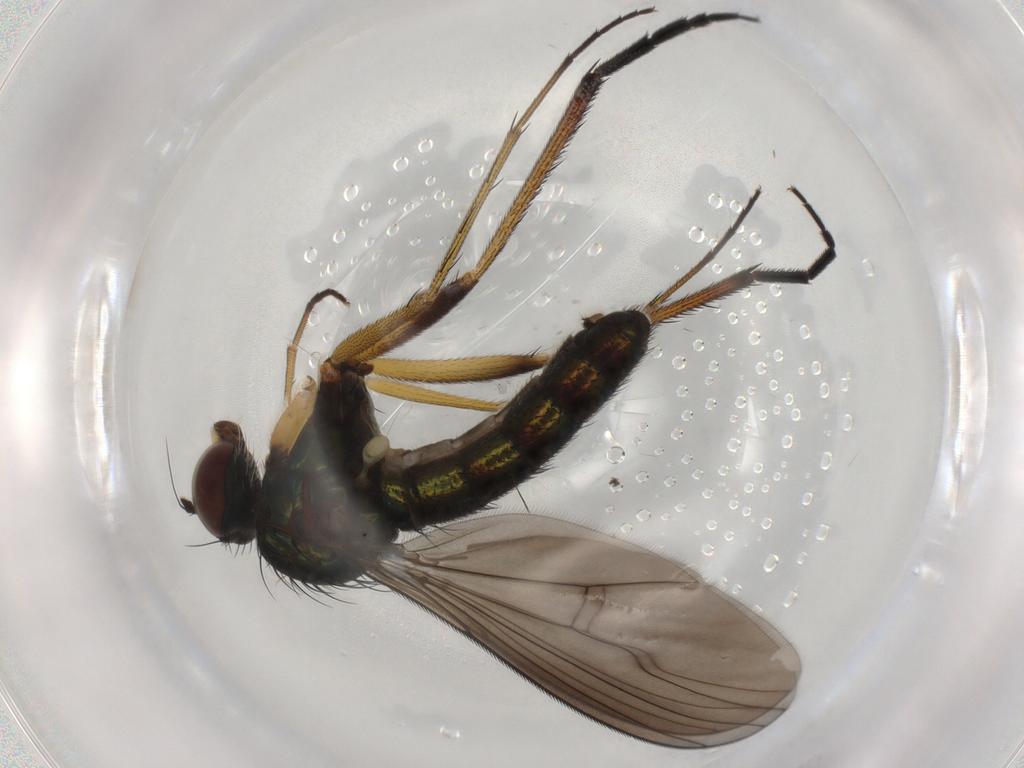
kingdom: Animalia
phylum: Arthropoda
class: Insecta
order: Diptera
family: Dolichopodidae
